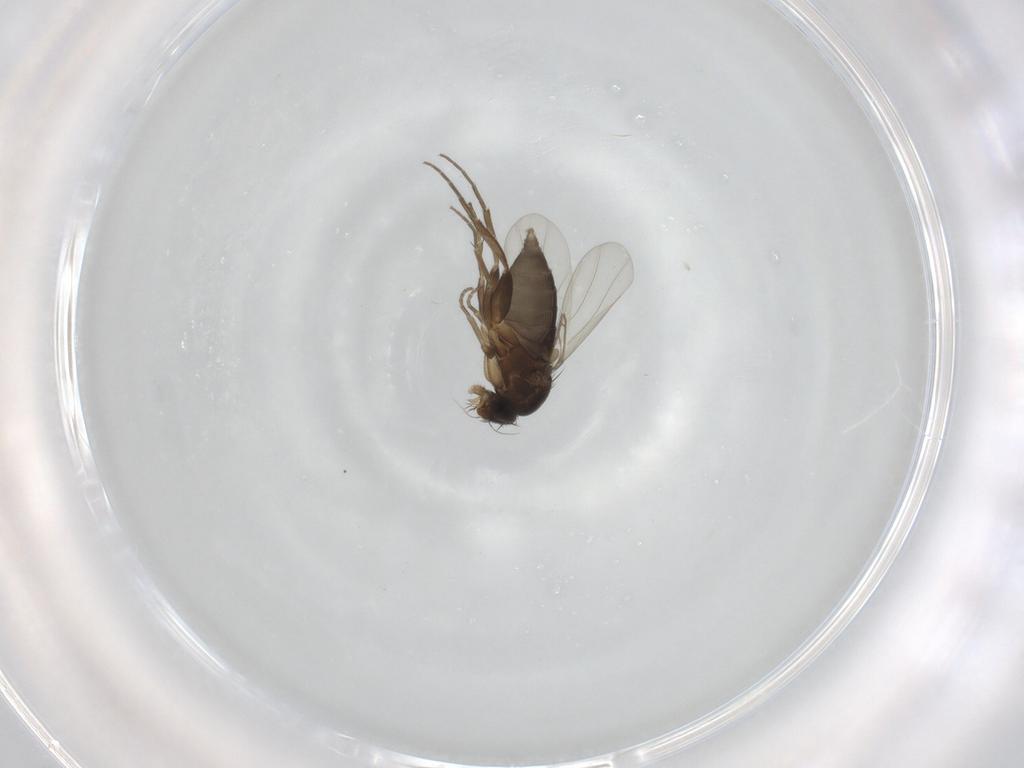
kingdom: Animalia
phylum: Arthropoda
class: Insecta
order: Diptera
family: Phoridae
